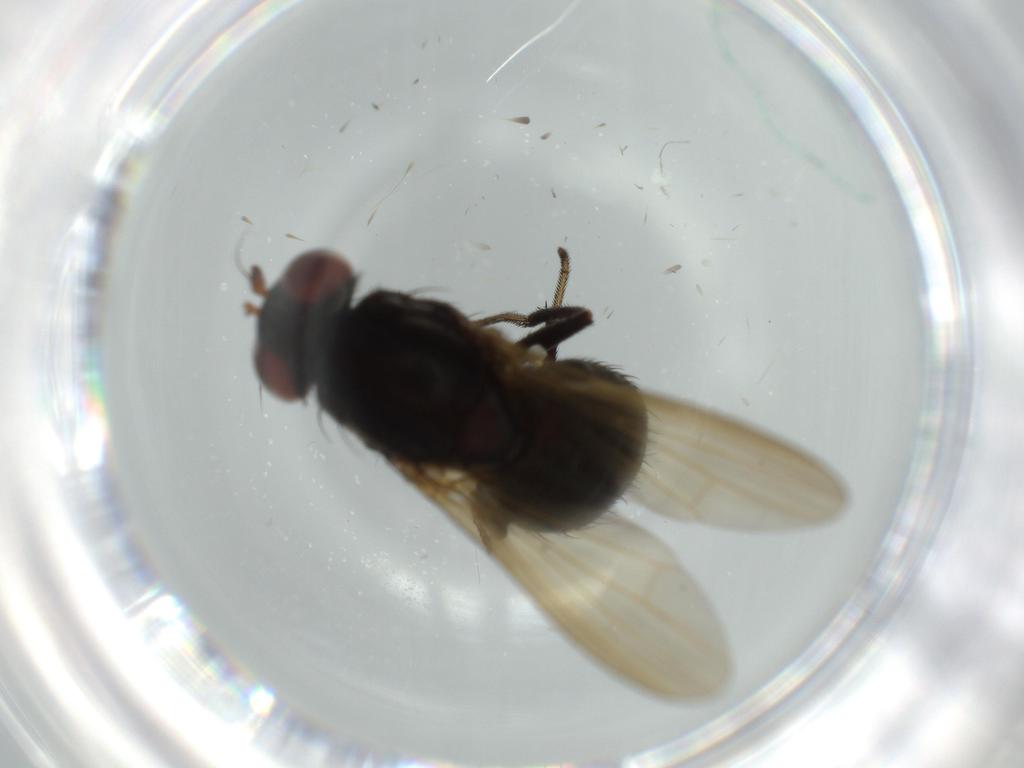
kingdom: Animalia
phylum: Arthropoda
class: Insecta
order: Diptera
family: Lauxaniidae
